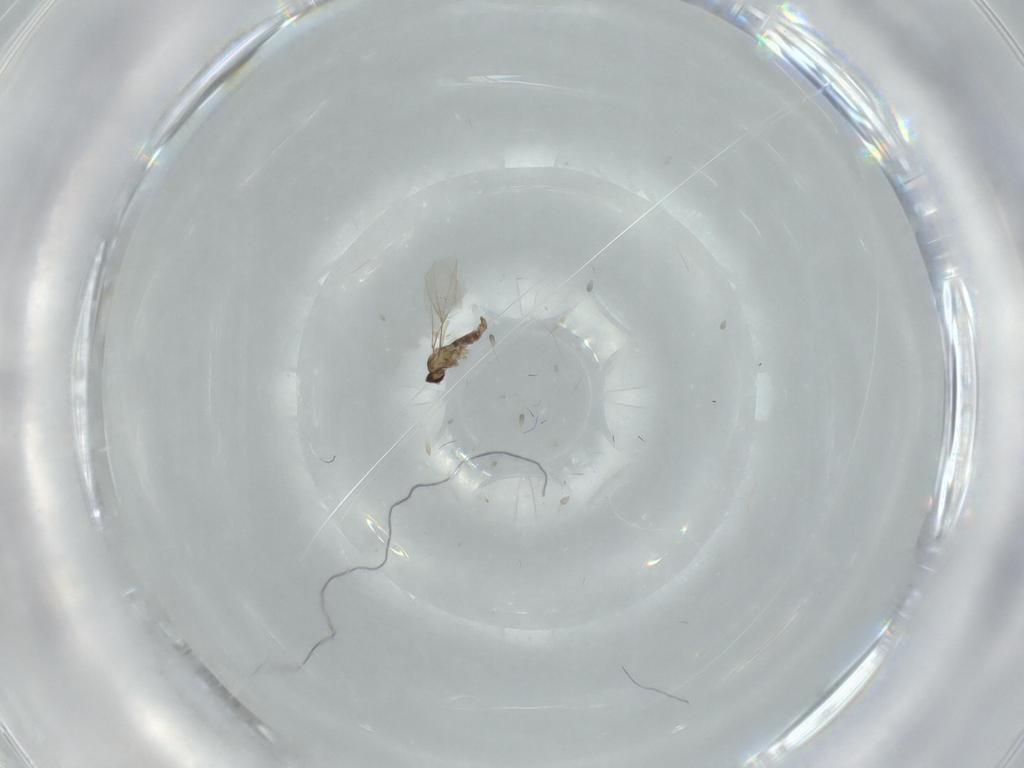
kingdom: Animalia
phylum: Arthropoda
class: Insecta
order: Diptera
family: Cecidomyiidae
